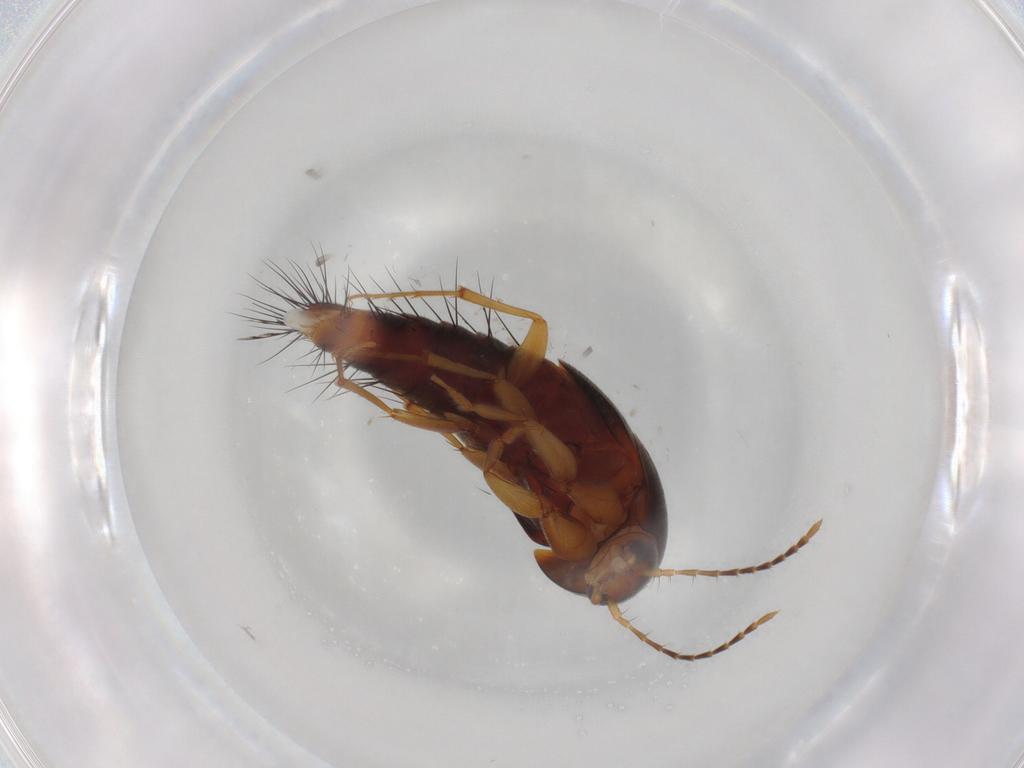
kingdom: Animalia
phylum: Arthropoda
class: Insecta
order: Coleoptera
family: Staphylinidae
